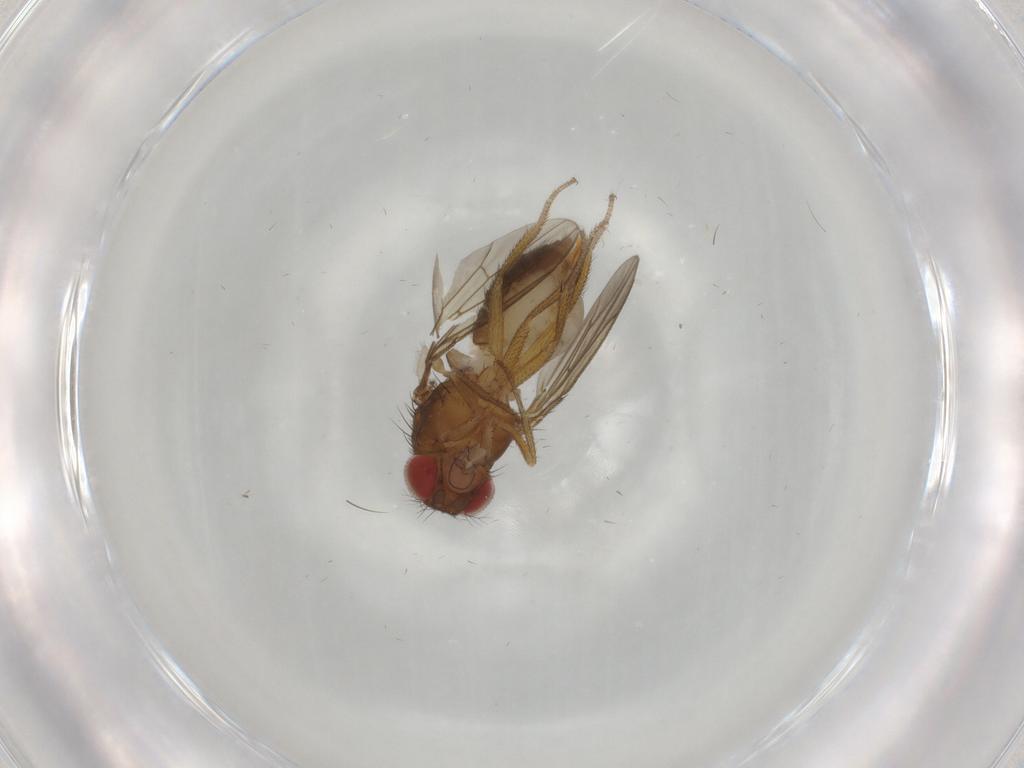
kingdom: Animalia
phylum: Arthropoda
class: Insecta
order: Diptera
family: Drosophilidae
